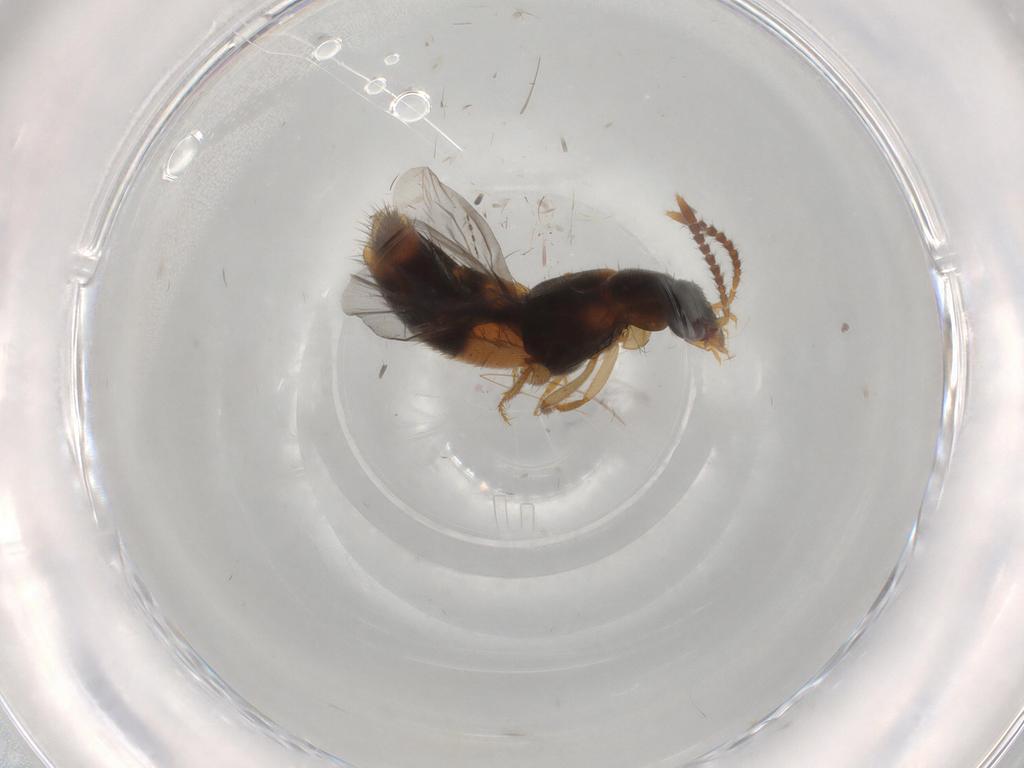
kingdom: Animalia
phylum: Arthropoda
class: Insecta
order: Coleoptera
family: Staphylinidae
